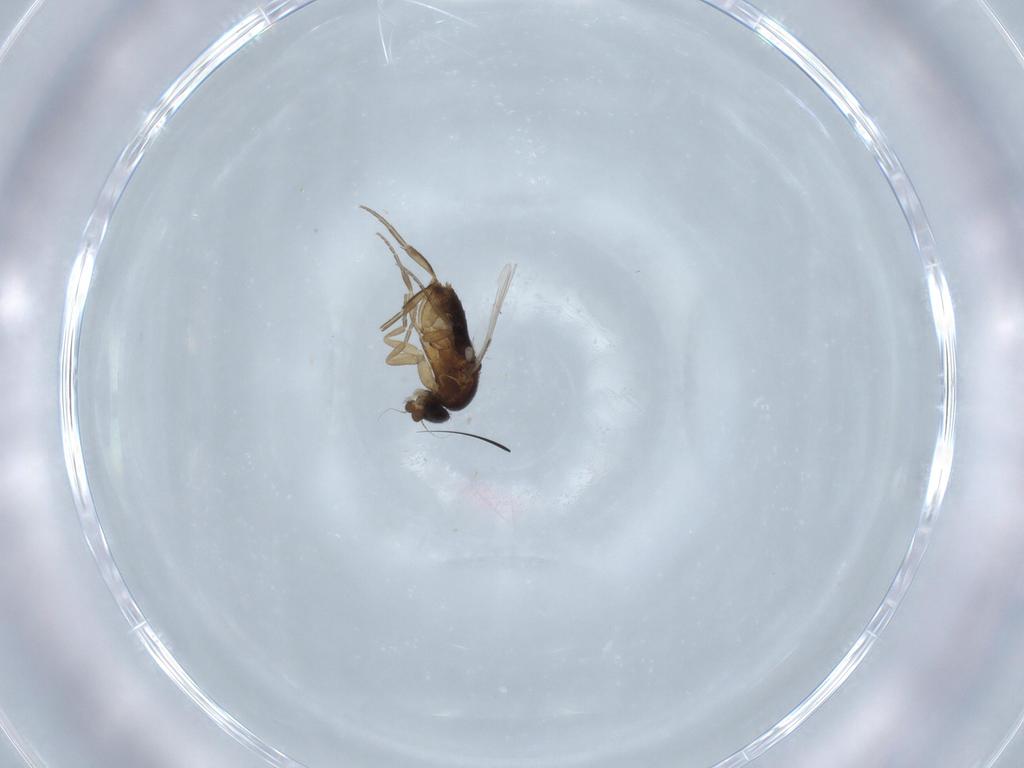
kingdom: Animalia
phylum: Arthropoda
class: Insecta
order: Diptera
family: Phoridae
